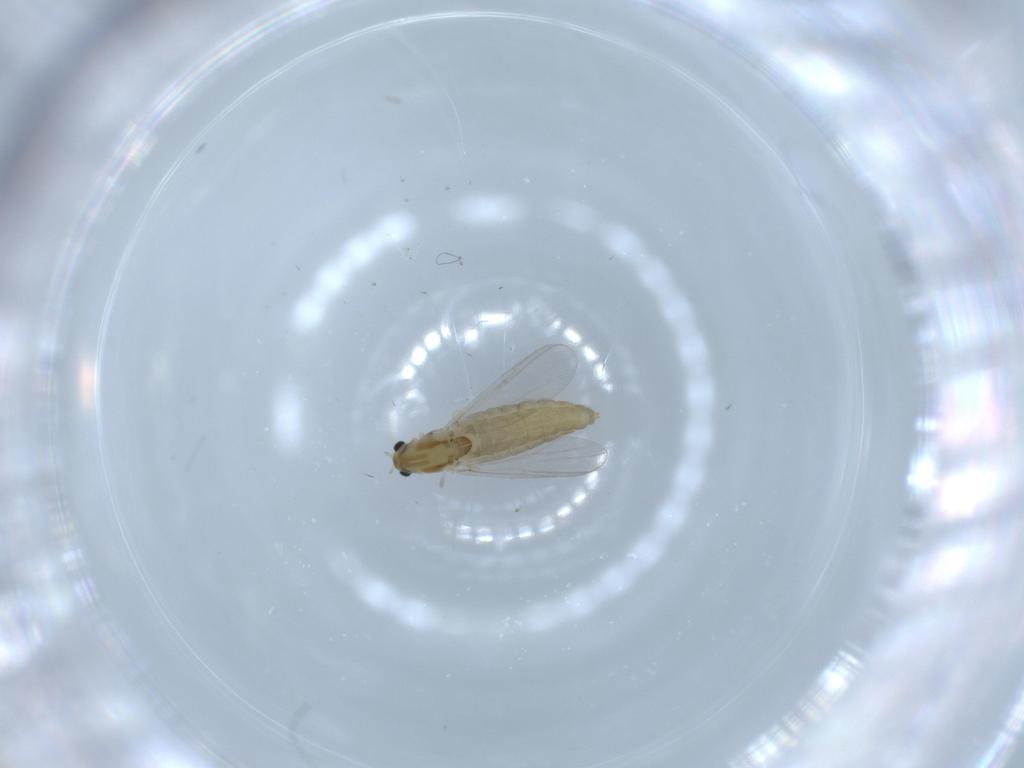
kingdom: Animalia
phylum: Arthropoda
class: Insecta
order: Diptera
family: Chironomidae
